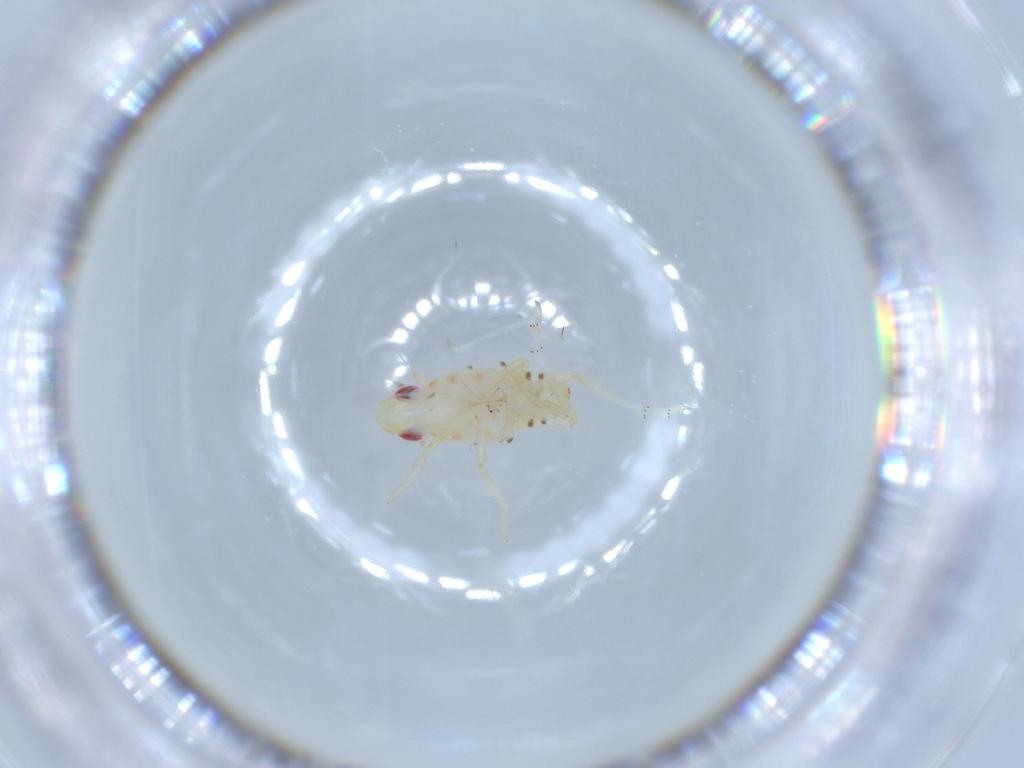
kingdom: Animalia
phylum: Arthropoda
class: Insecta
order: Hemiptera
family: Tropiduchidae
